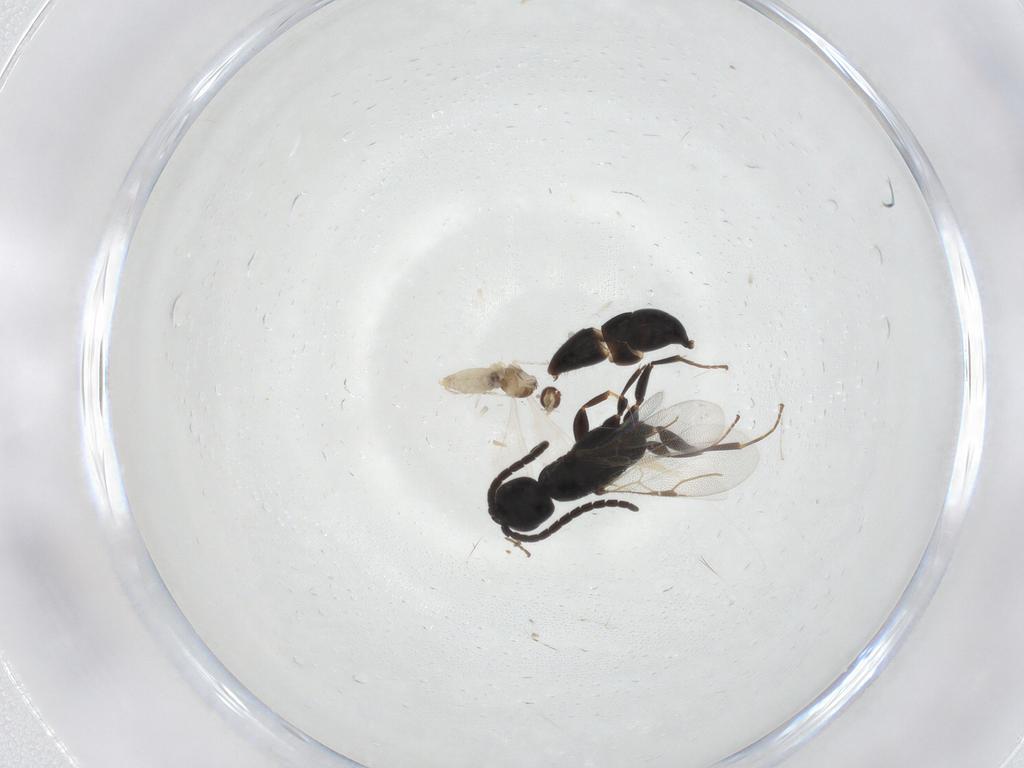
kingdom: Animalia
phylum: Arthropoda
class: Insecta
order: Hymenoptera
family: Bethylidae
